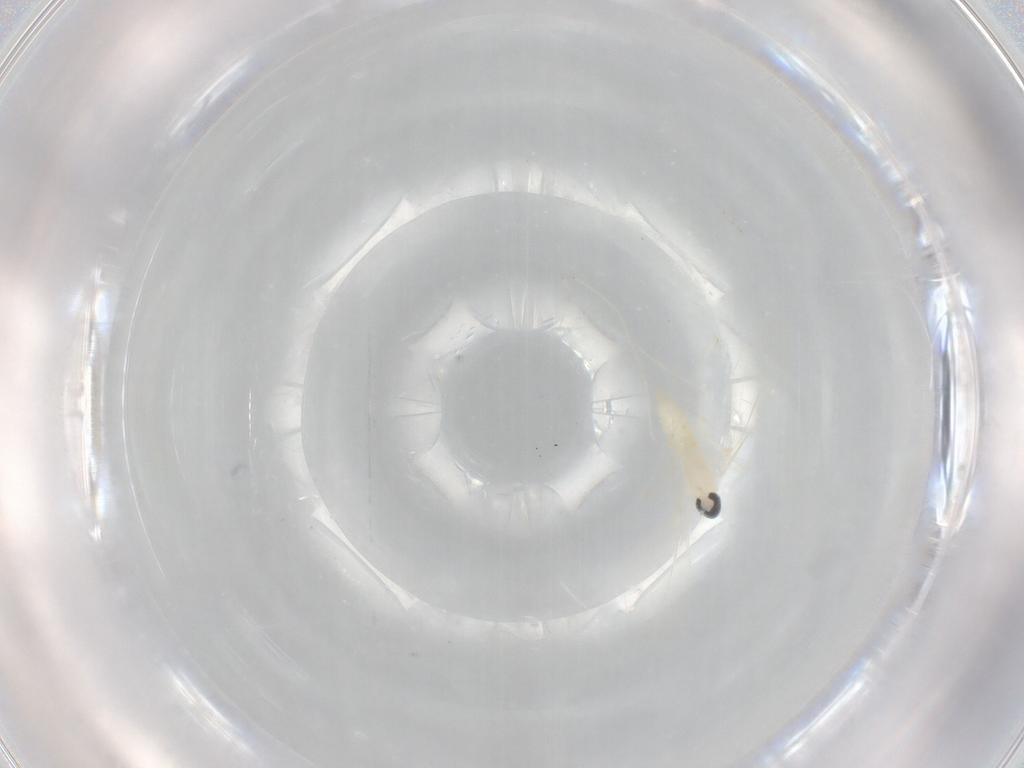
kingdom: Animalia
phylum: Arthropoda
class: Insecta
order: Diptera
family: Cecidomyiidae
